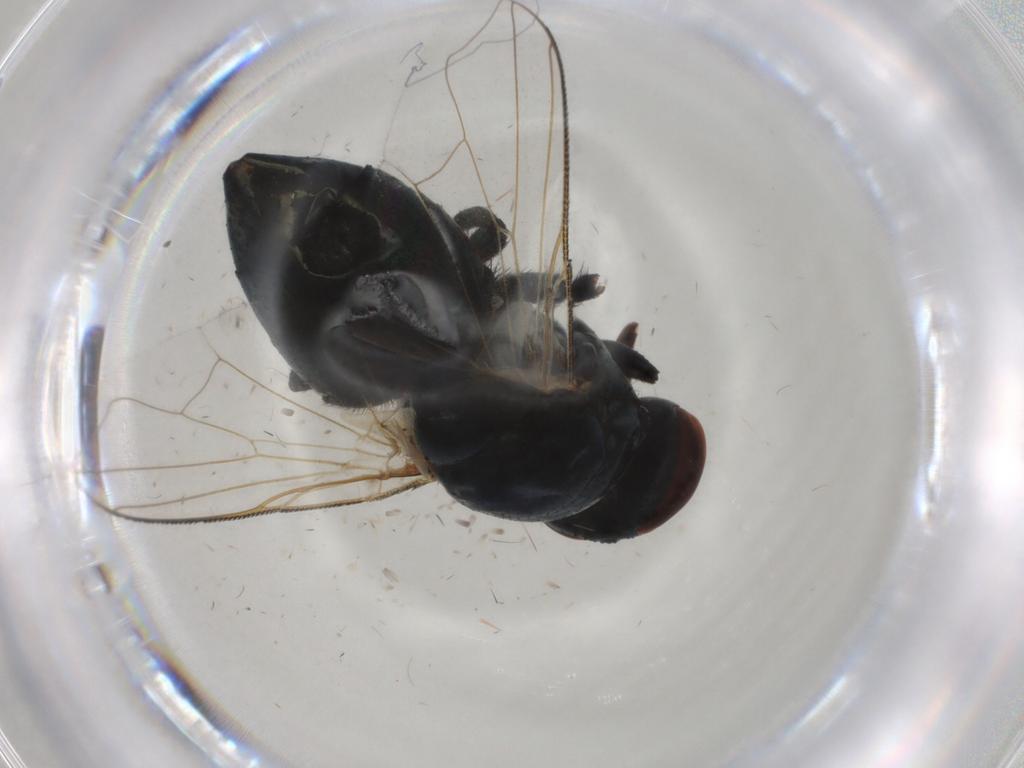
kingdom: Animalia
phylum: Arthropoda
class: Insecta
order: Diptera
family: Muscidae
